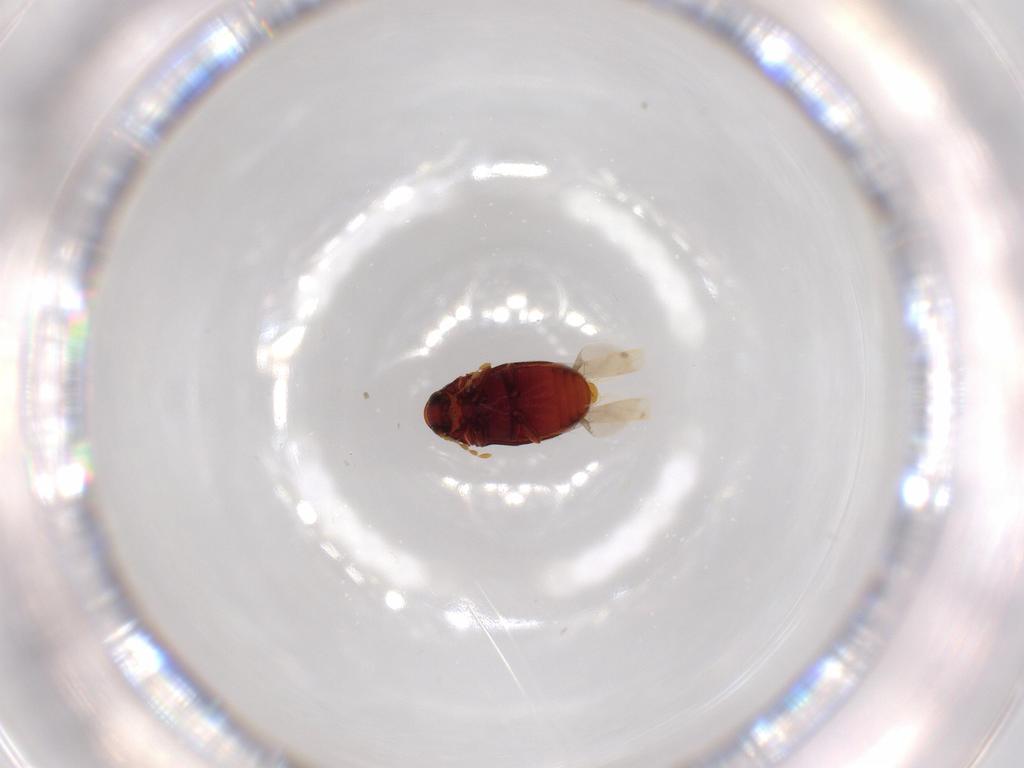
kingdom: Animalia
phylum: Arthropoda
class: Insecta
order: Coleoptera
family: Ptinidae
